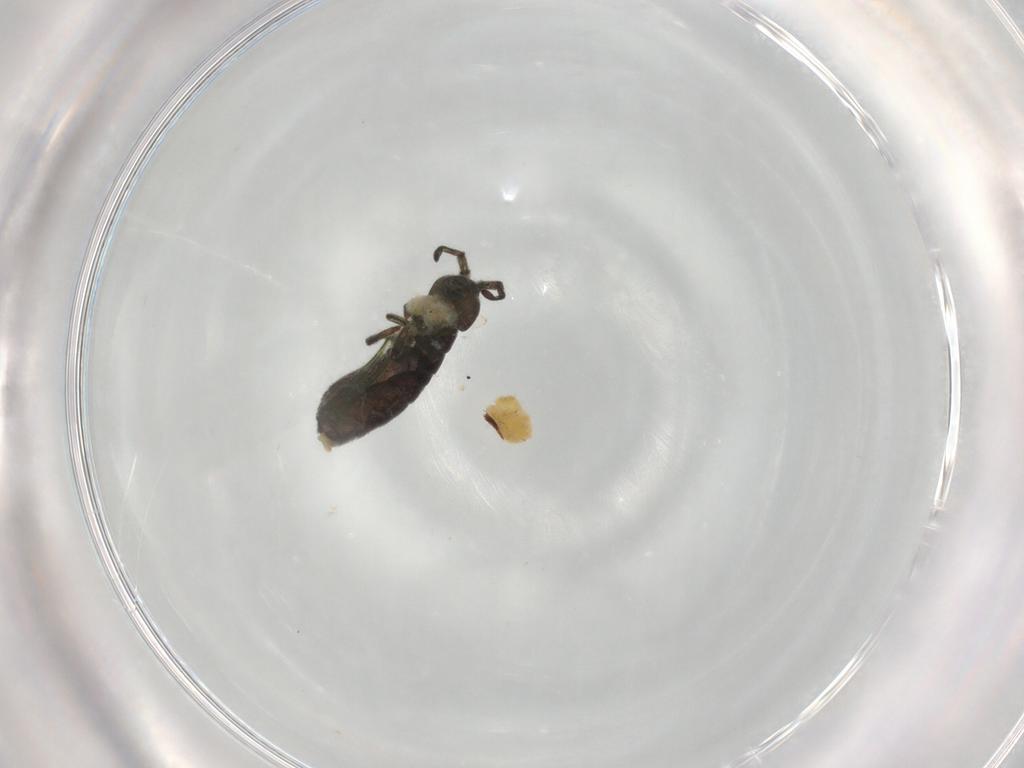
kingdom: Animalia
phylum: Arthropoda
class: Collembola
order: Entomobryomorpha
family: Isotomidae
